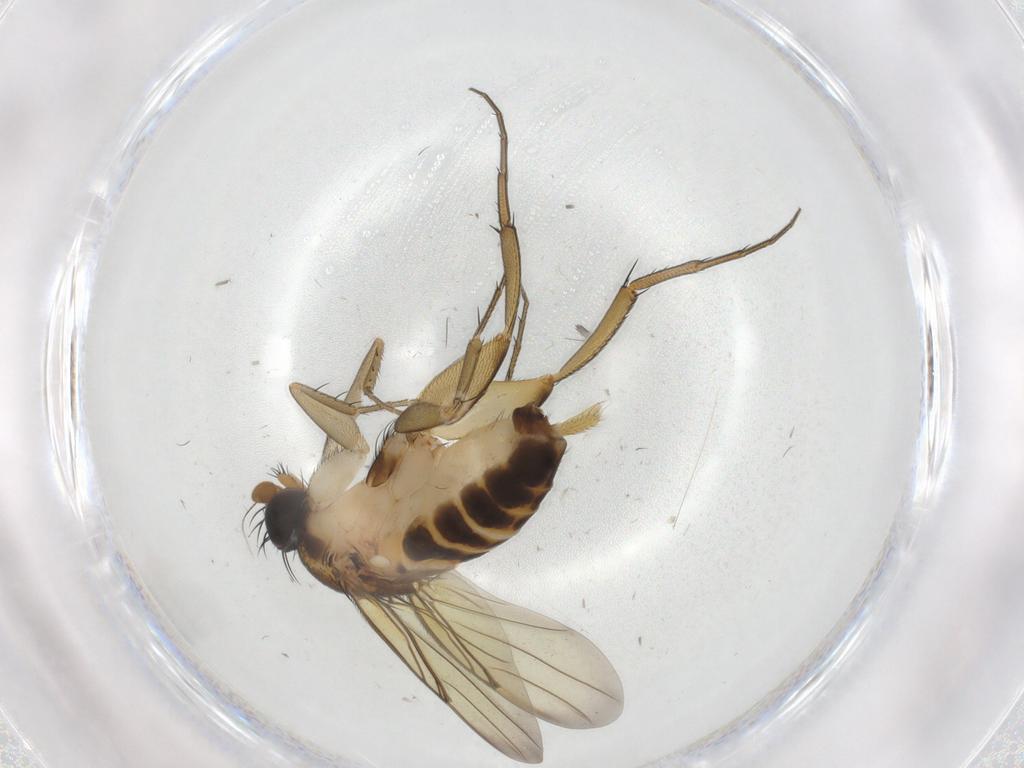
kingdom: Animalia
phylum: Arthropoda
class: Insecta
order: Diptera
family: Phoridae
